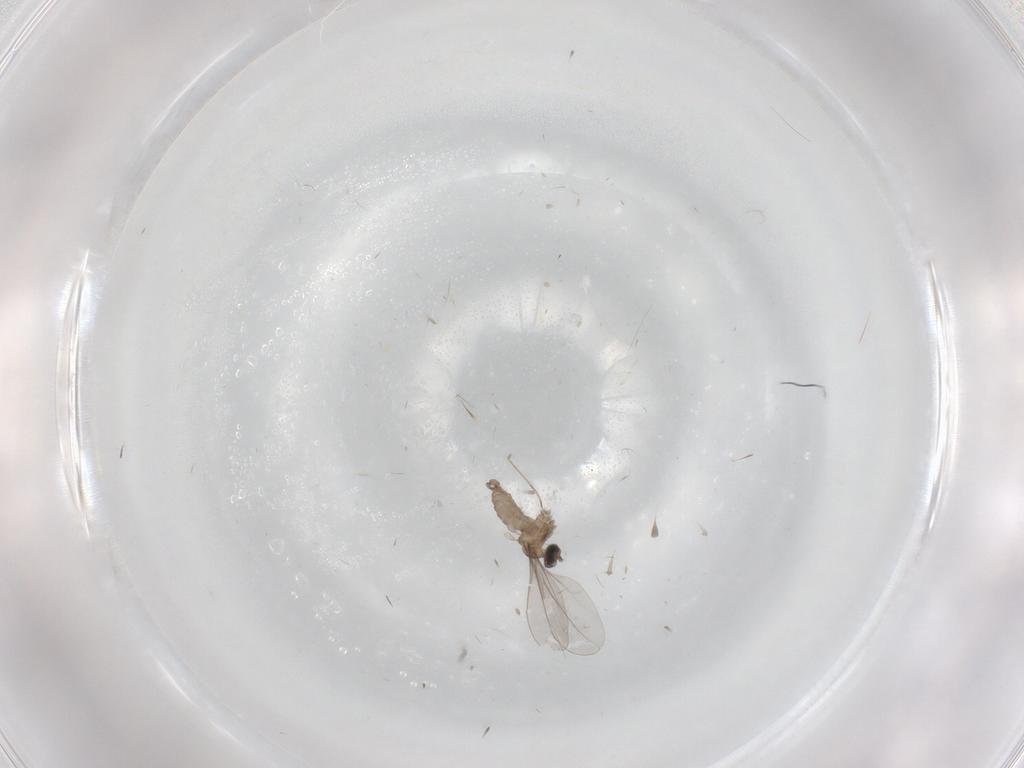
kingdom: Animalia
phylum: Arthropoda
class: Insecta
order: Diptera
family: Cecidomyiidae
